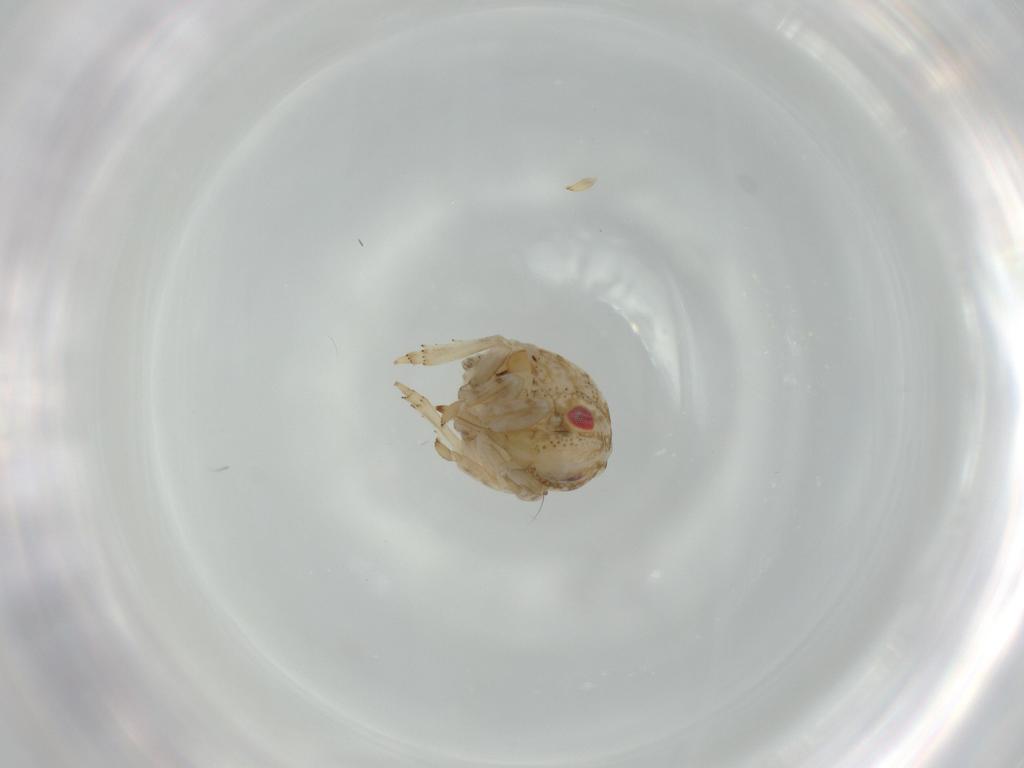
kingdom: Animalia
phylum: Arthropoda
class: Insecta
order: Hemiptera
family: Acanaloniidae
